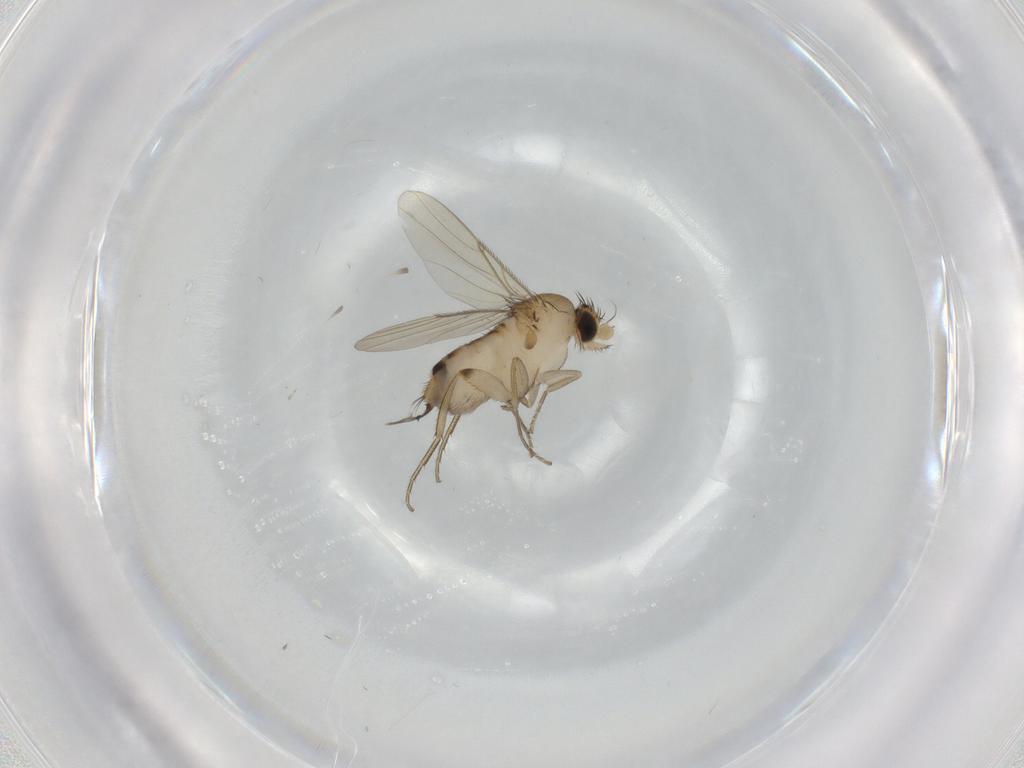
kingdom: Animalia
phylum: Arthropoda
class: Insecta
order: Diptera
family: Phoridae
